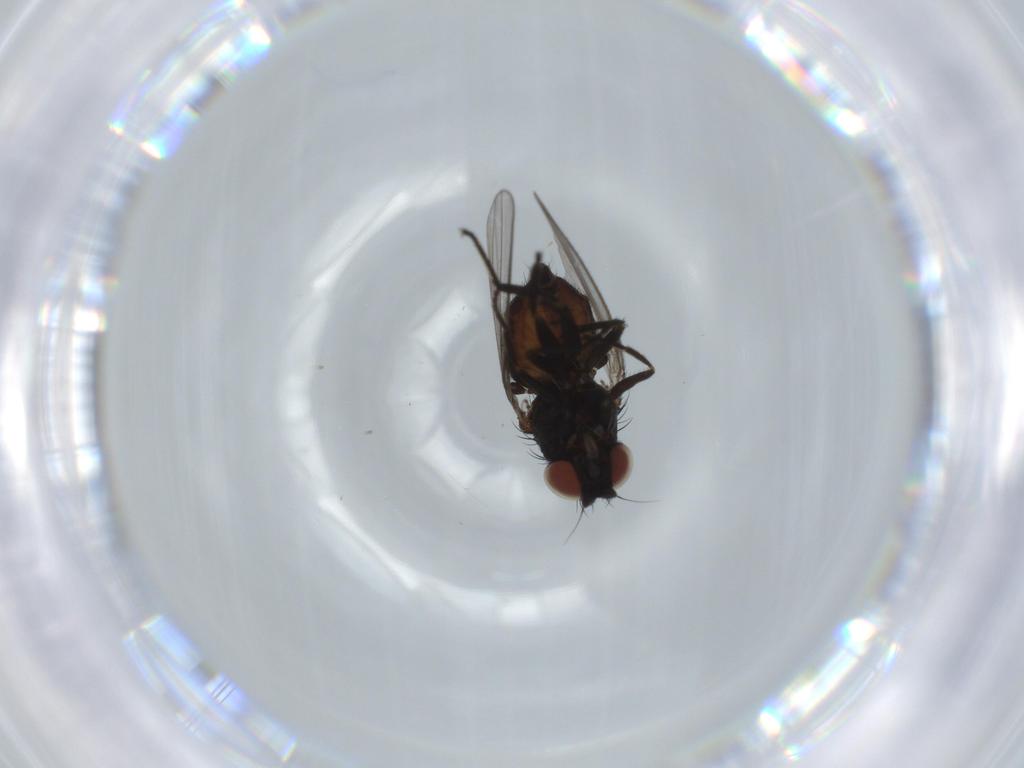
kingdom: Animalia
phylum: Arthropoda
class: Insecta
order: Diptera
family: Milichiidae
